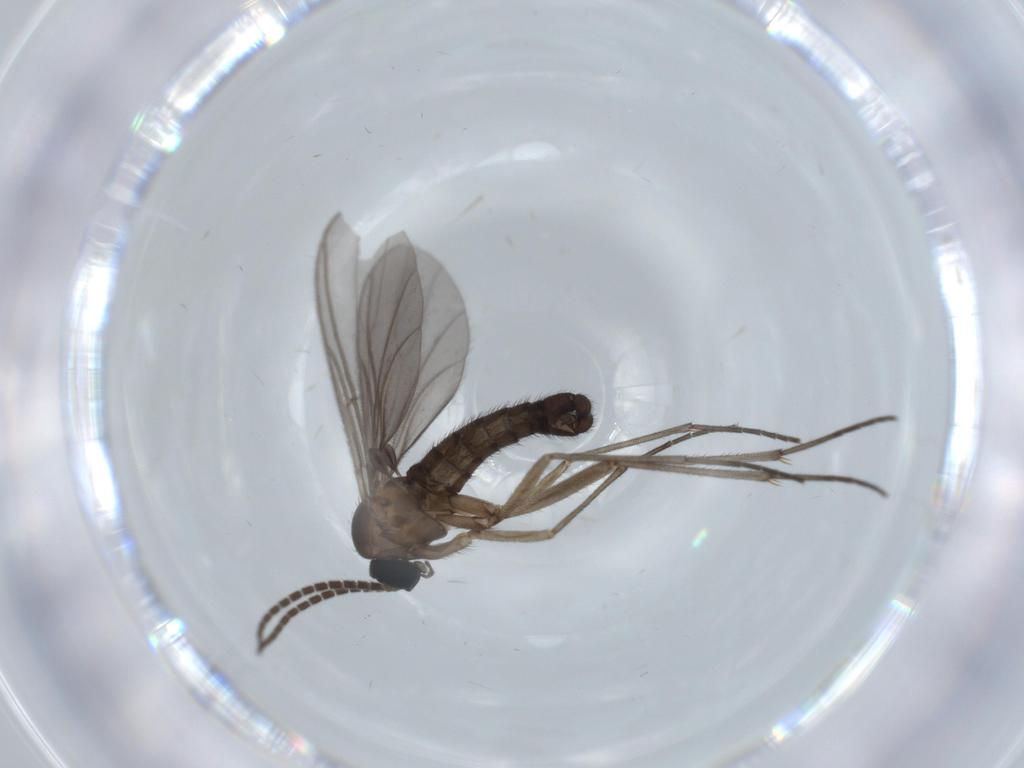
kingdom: Animalia
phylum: Arthropoda
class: Insecta
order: Diptera
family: Sciaridae
